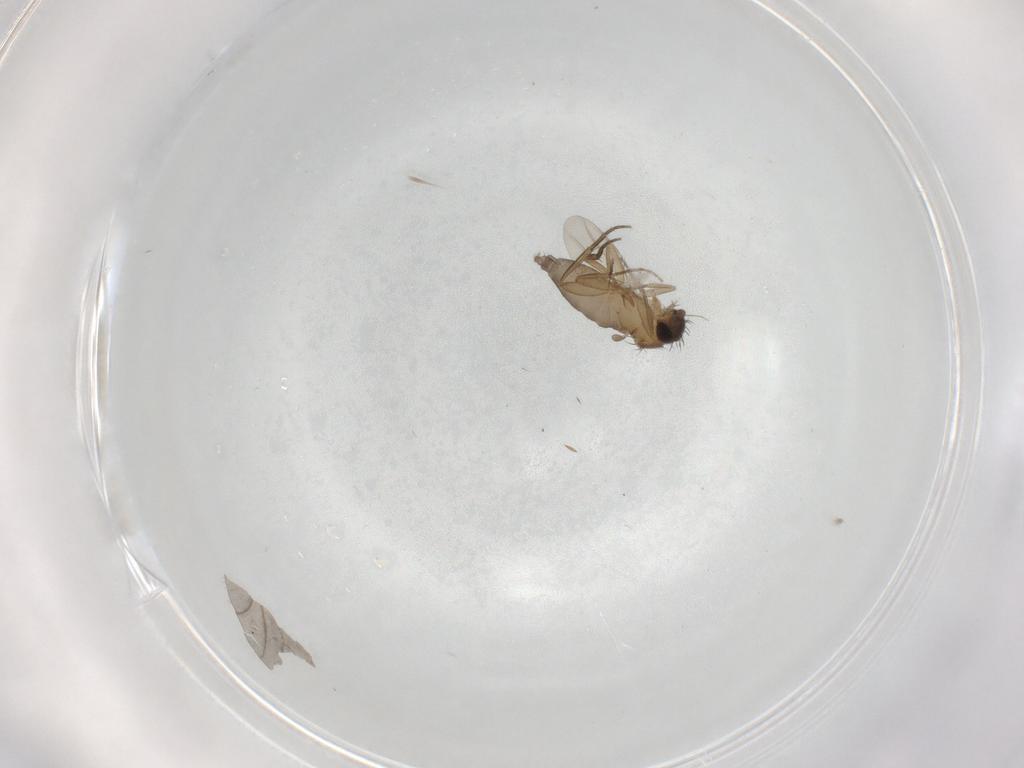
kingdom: Animalia
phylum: Arthropoda
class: Insecta
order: Diptera
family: Phoridae
